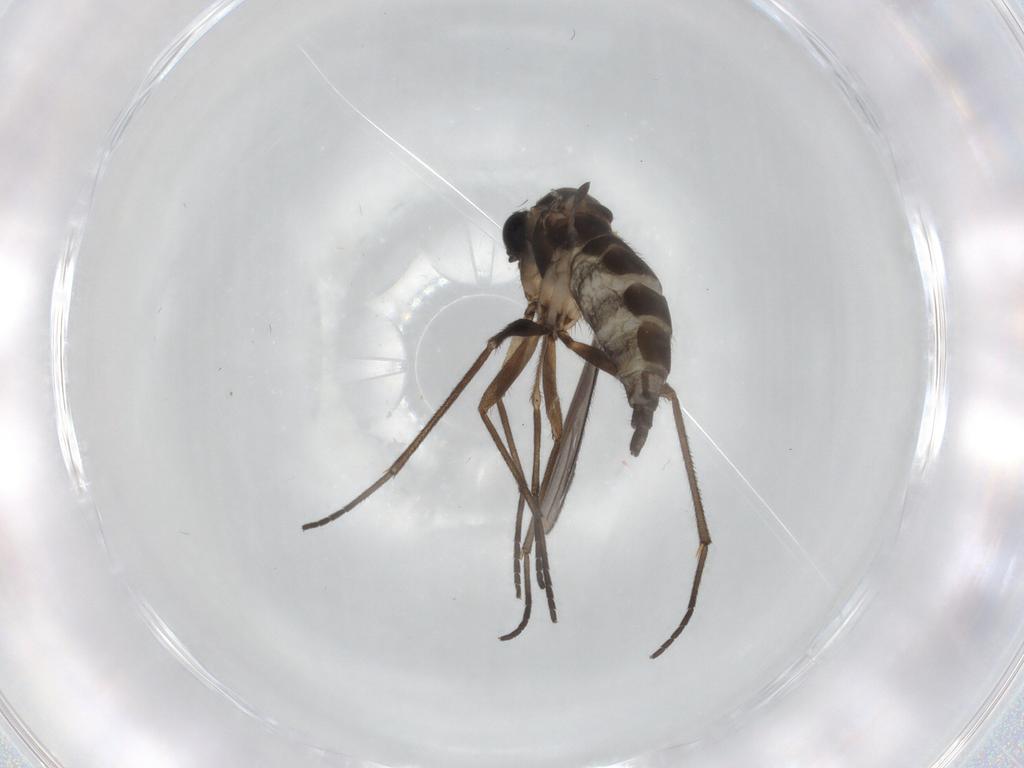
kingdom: Animalia
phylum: Arthropoda
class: Insecta
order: Diptera
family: Sciaridae
